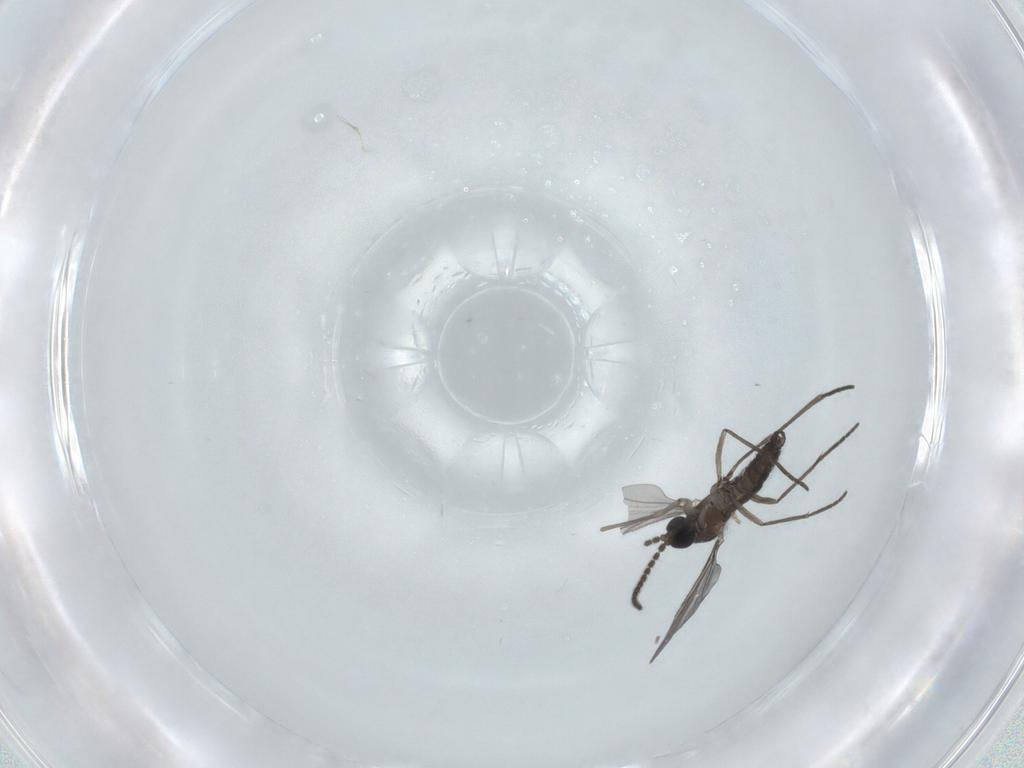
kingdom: Animalia
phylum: Arthropoda
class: Insecta
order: Diptera
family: Sciaridae
